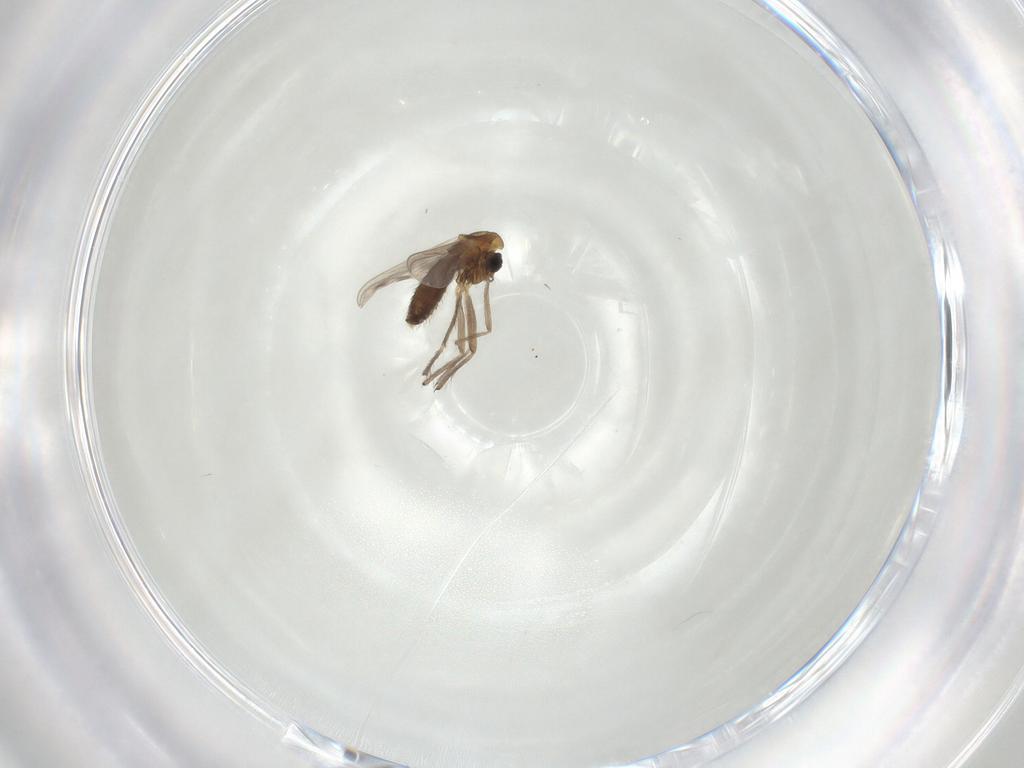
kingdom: Animalia
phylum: Arthropoda
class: Insecta
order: Diptera
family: Chironomidae
